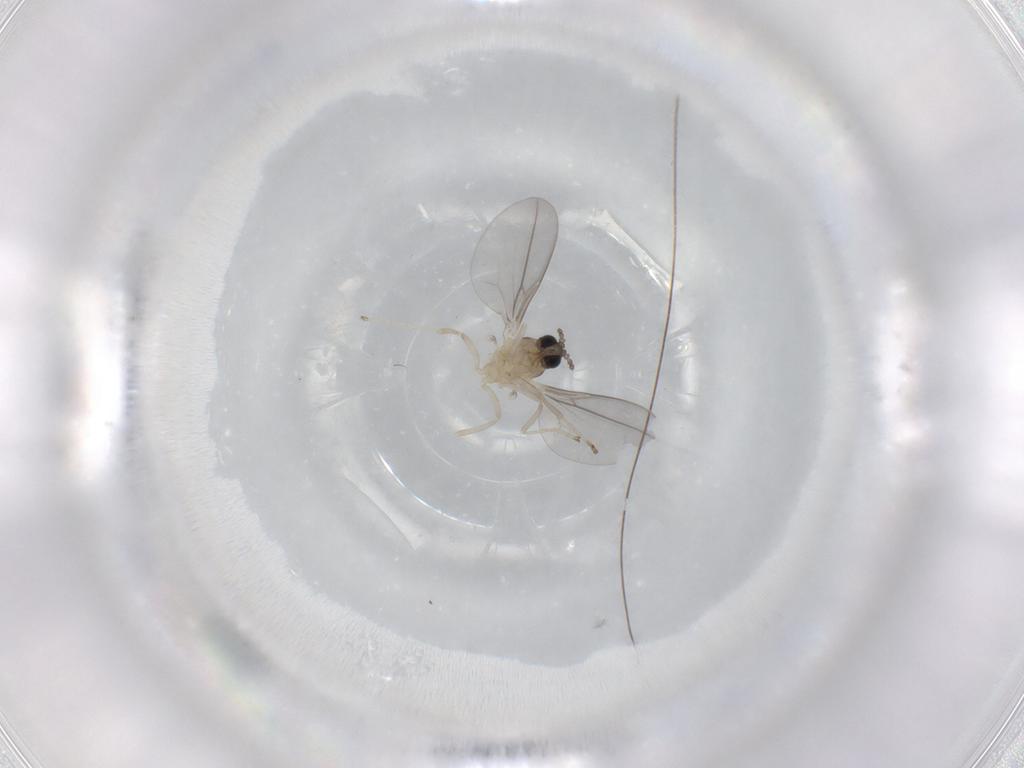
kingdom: Animalia
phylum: Arthropoda
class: Insecta
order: Diptera
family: Cecidomyiidae
